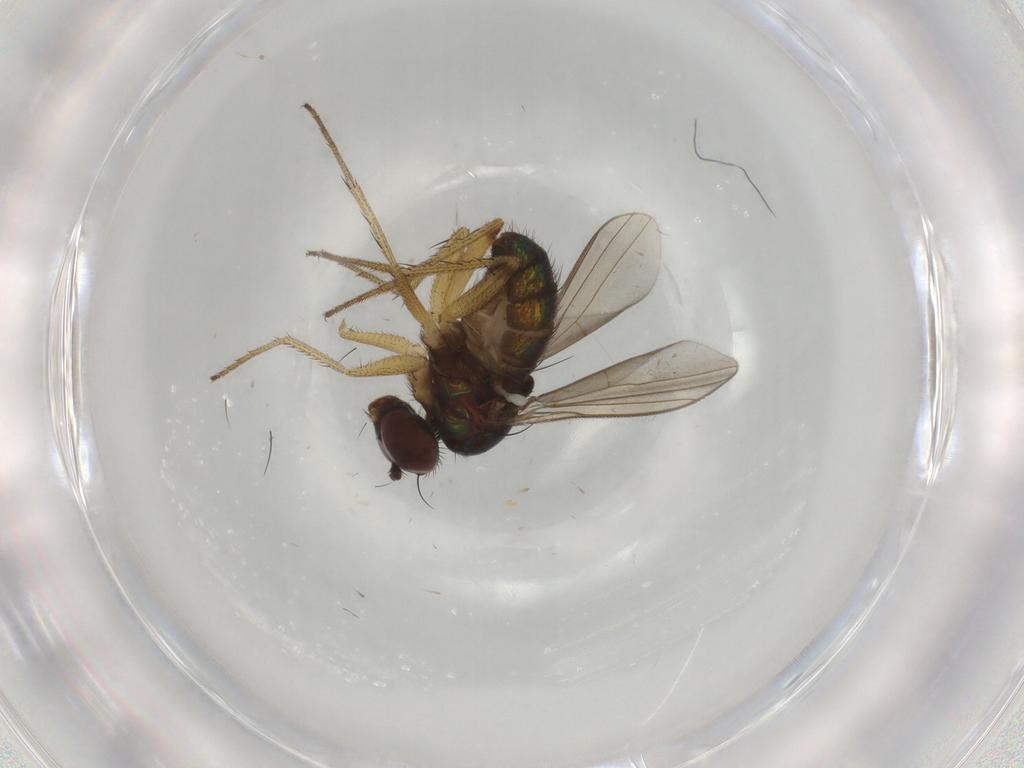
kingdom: Animalia
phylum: Arthropoda
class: Insecta
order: Diptera
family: Dolichopodidae
